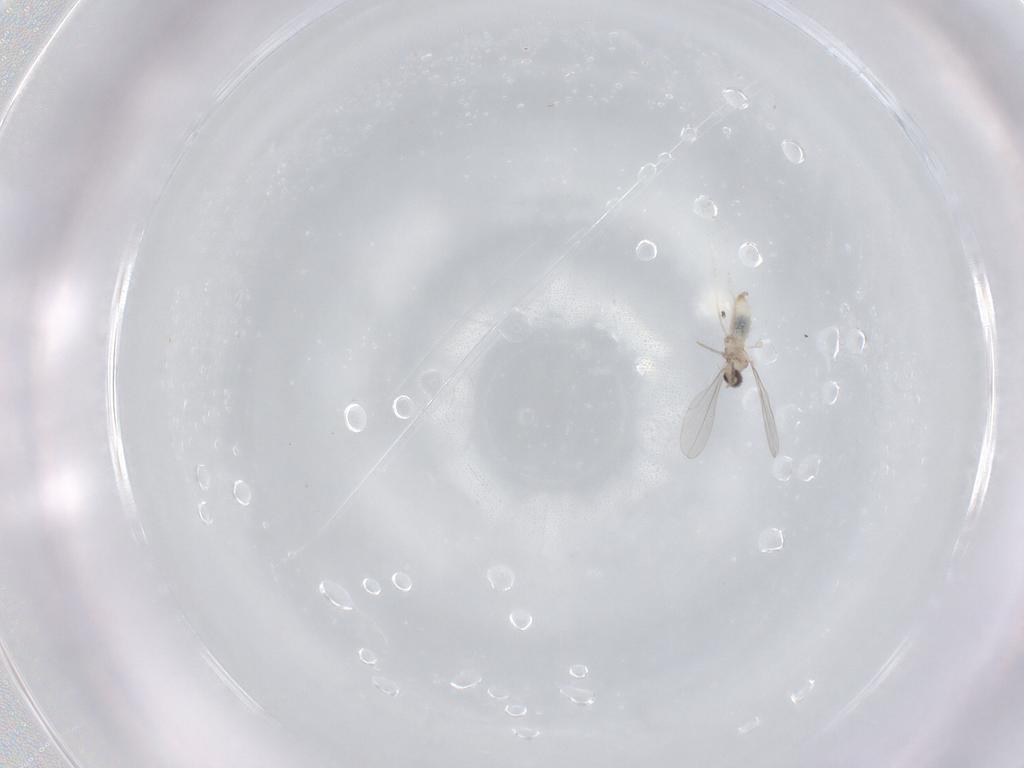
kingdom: Animalia
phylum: Arthropoda
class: Insecta
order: Diptera
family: Cecidomyiidae
